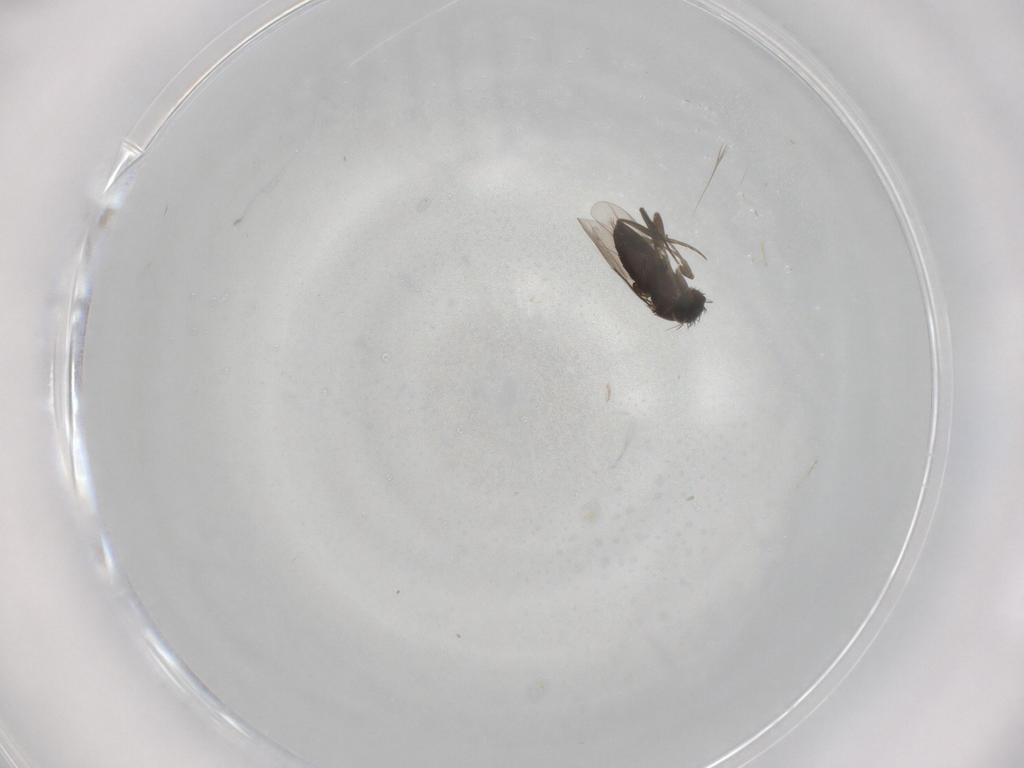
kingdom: Animalia
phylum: Arthropoda
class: Insecta
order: Diptera
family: Phoridae
